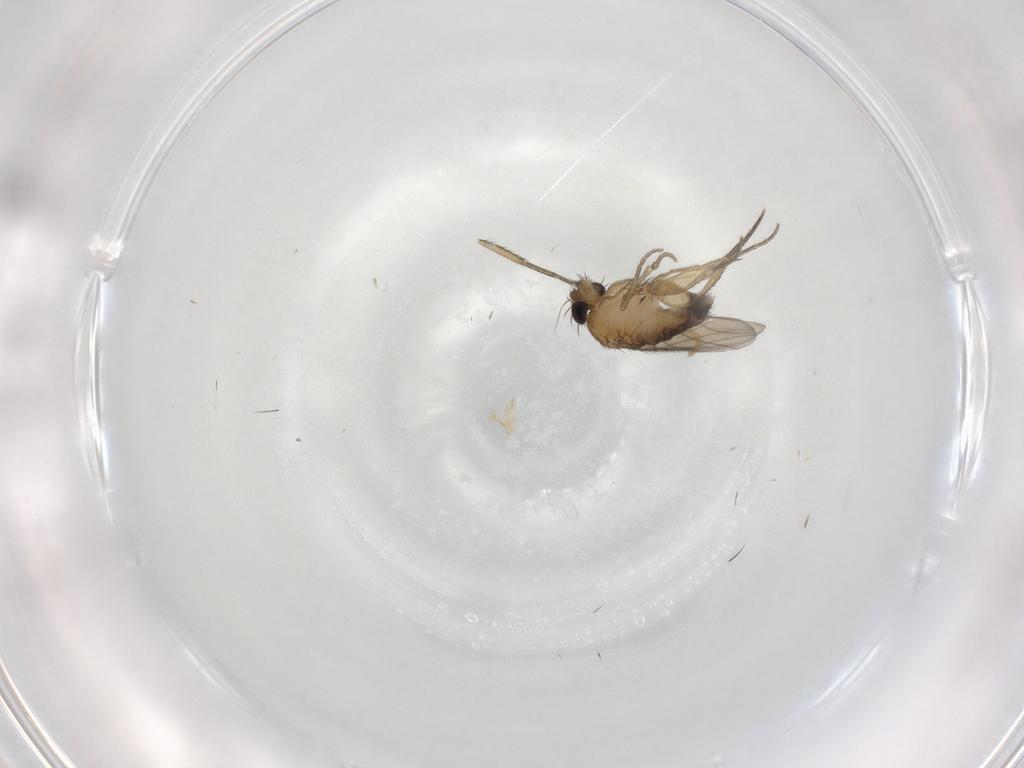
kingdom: Animalia
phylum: Arthropoda
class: Insecta
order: Diptera
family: Phoridae
